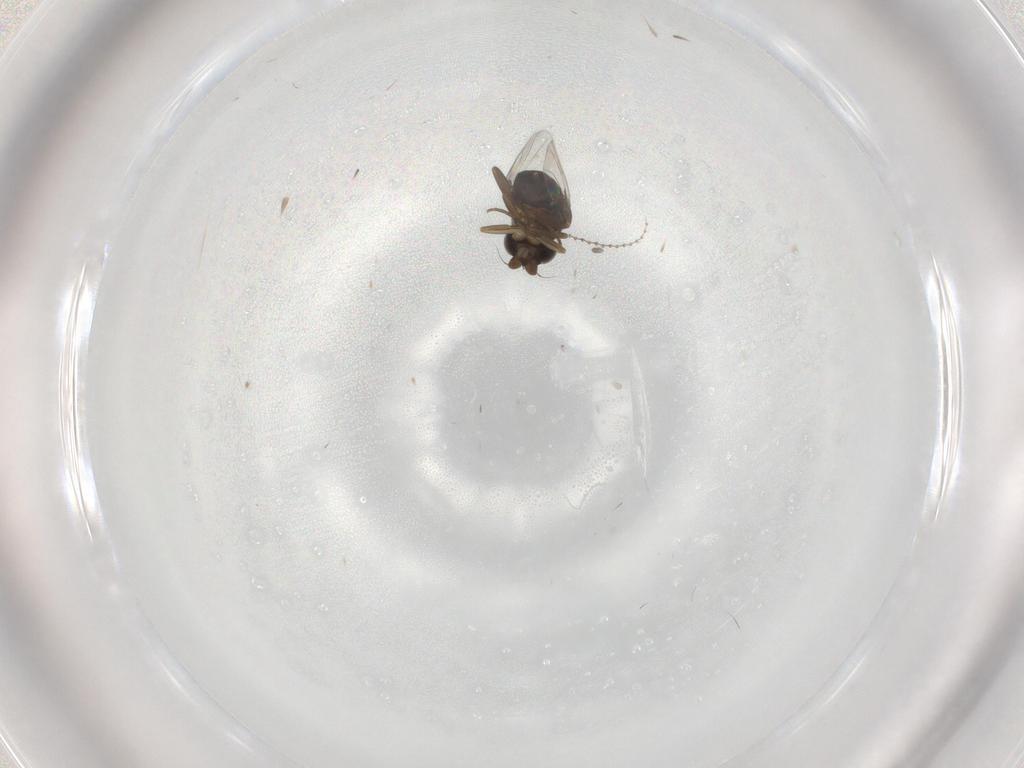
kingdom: Animalia
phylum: Arthropoda
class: Insecta
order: Diptera
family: Phoridae
